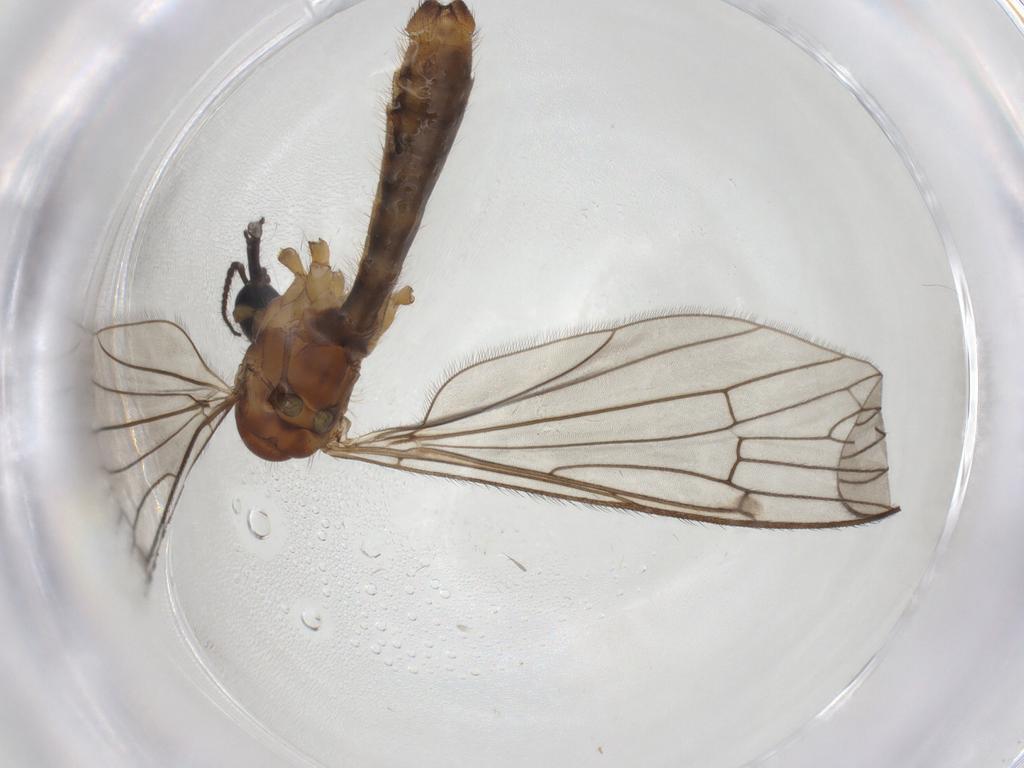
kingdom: Animalia
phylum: Arthropoda
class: Insecta
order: Diptera
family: Phoridae
